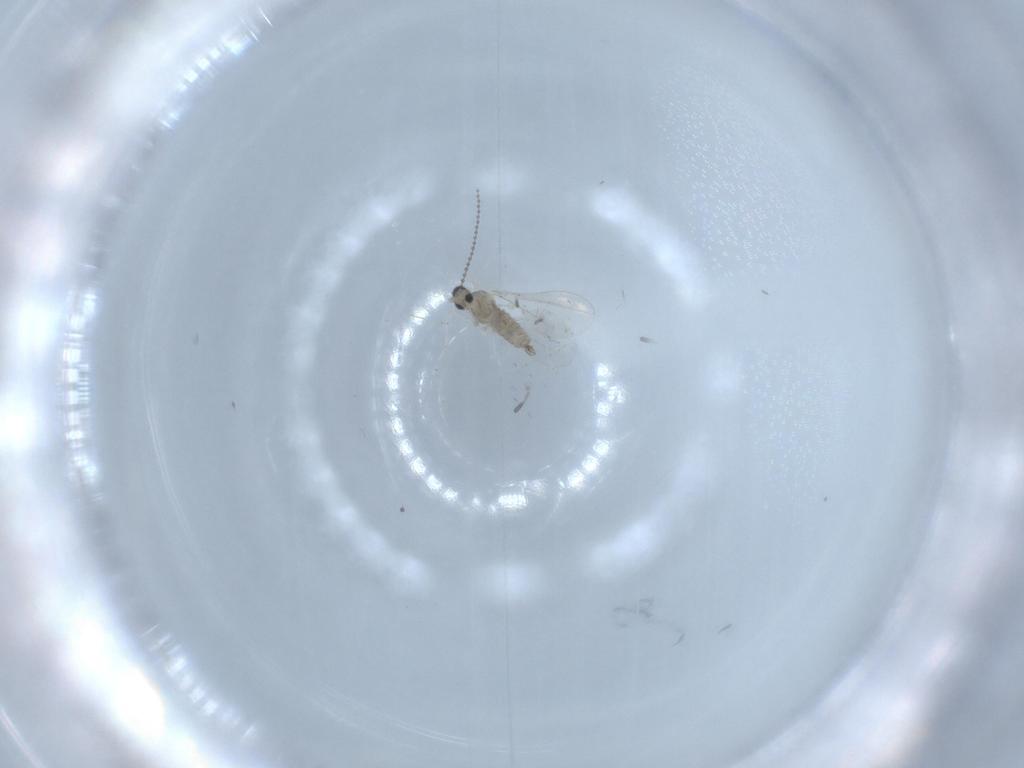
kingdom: Animalia
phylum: Arthropoda
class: Insecta
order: Diptera
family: Cecidomyiidae
